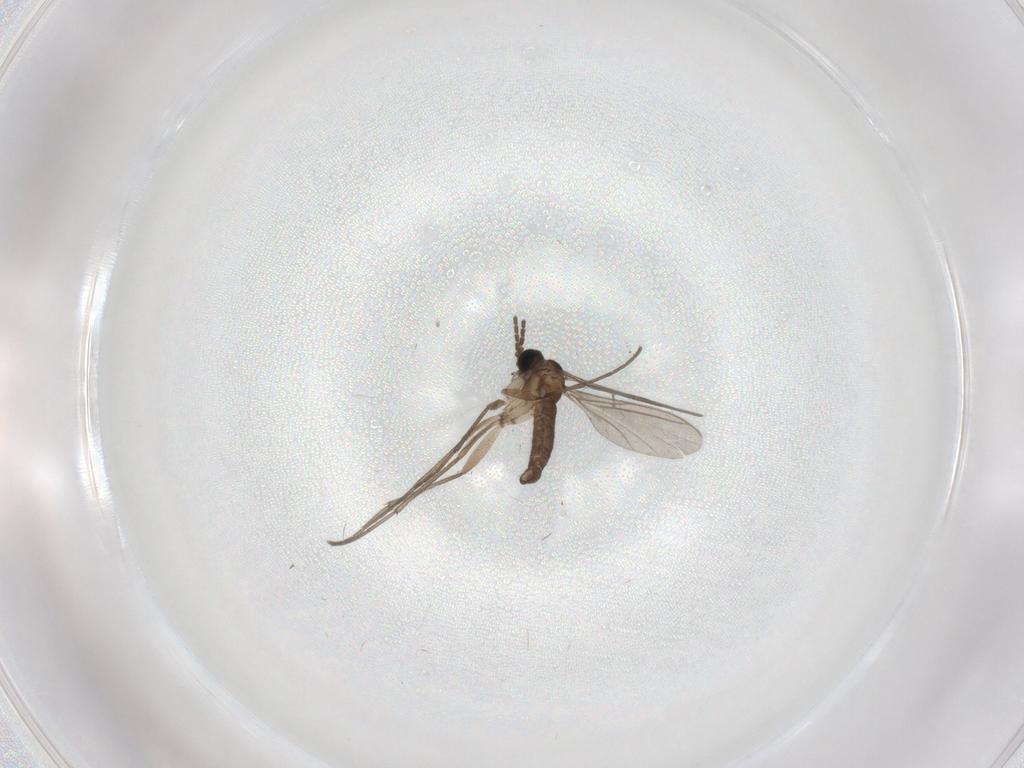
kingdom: Animalia
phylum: Arthropoda
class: Insecta
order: Diptera
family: Sciaridae
